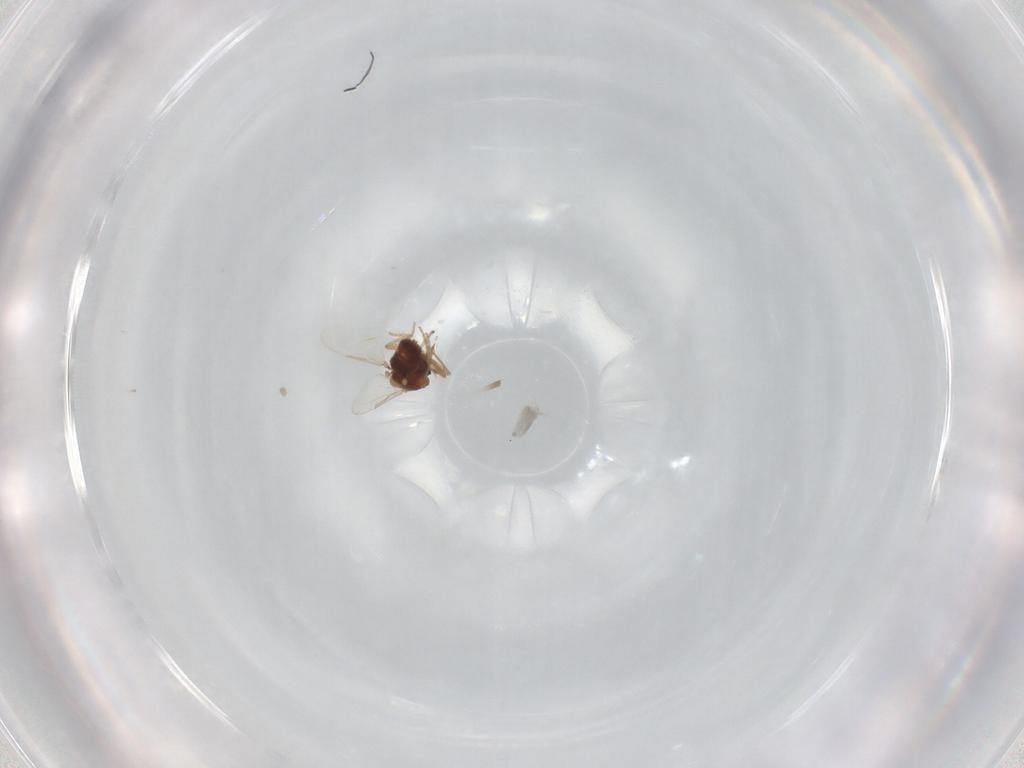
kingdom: Animalia
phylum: Arthropoda
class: Insecta
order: Diptera
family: Ceratopogonidae
